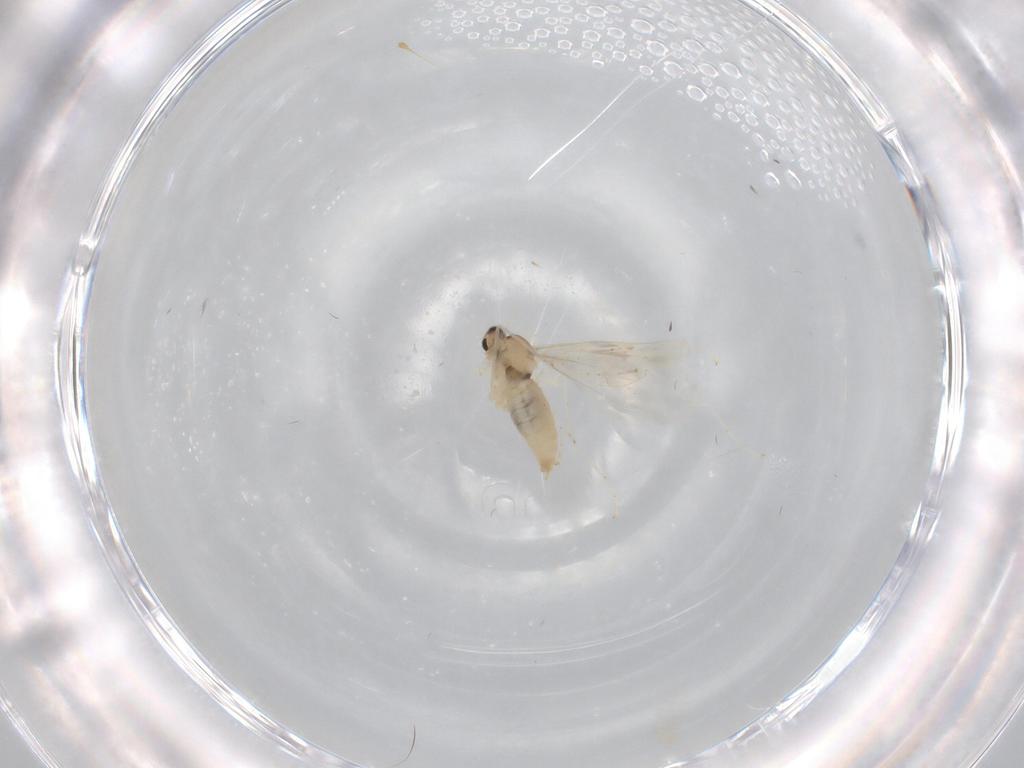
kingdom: Animalia
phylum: Arthropoda
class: Insecta
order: Diptera
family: Cecidomyiidae
